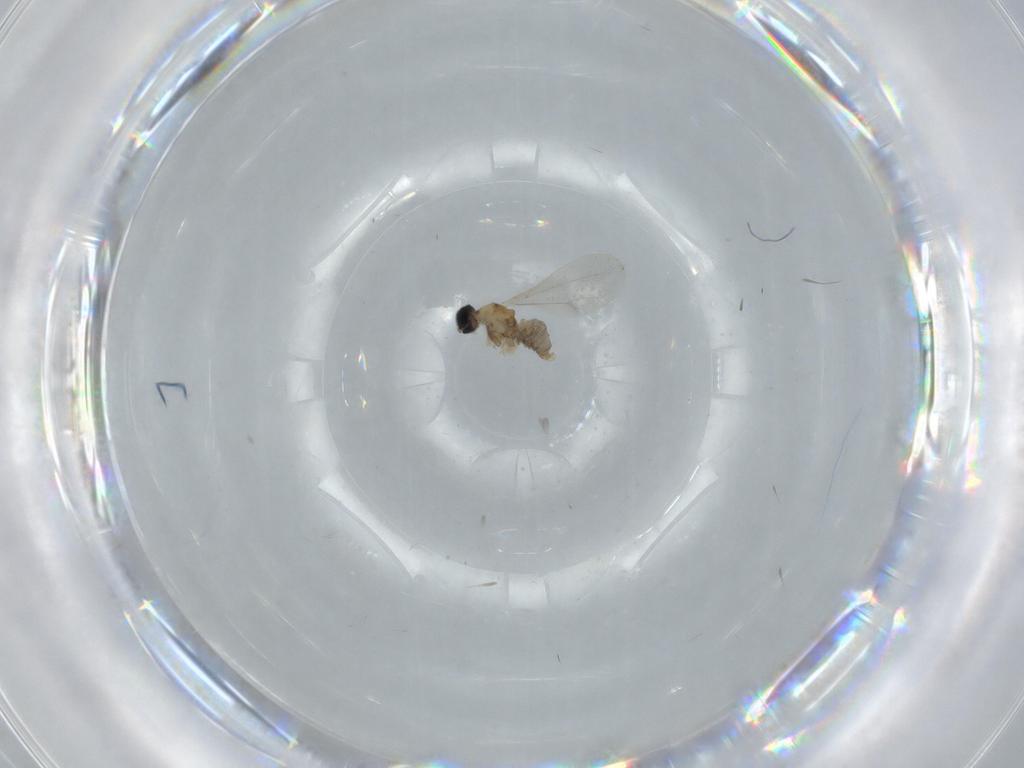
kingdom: Animalia
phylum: Arthropoda
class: Insecta
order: Diptera
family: Cecidomyiidae
